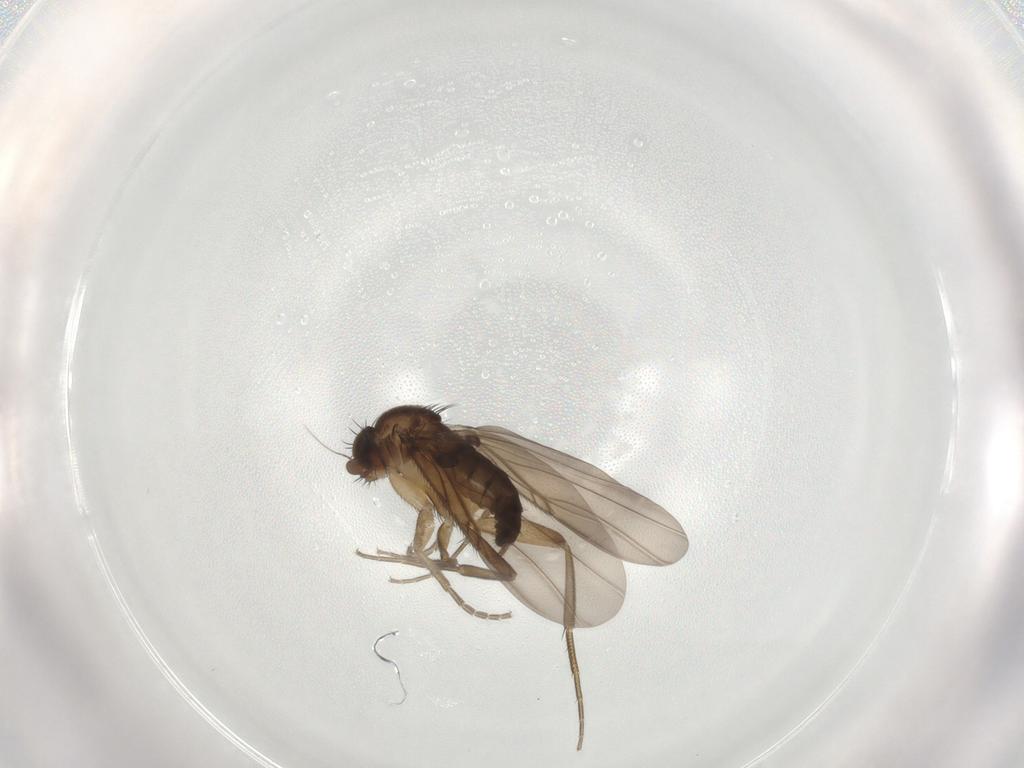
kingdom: Animalia
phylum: Arthropoda
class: Insecta
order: Diptera
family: Phoridae
